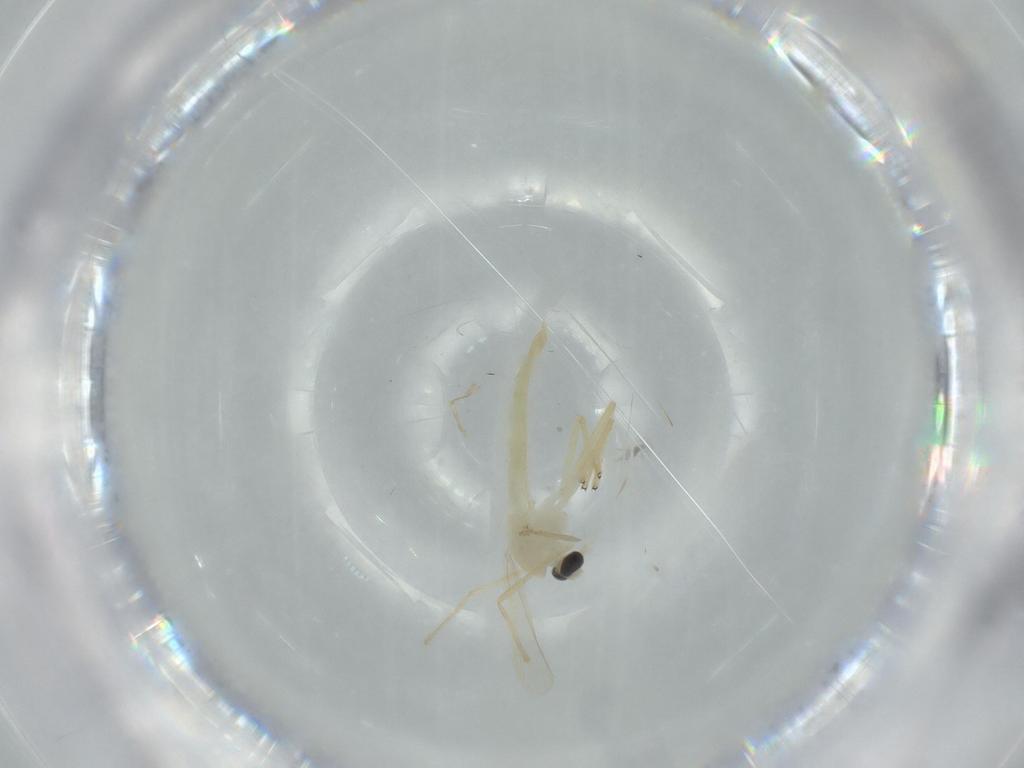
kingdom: Animalia
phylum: Arthropoda
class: Insecta
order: Diptera
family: Chironomidae
